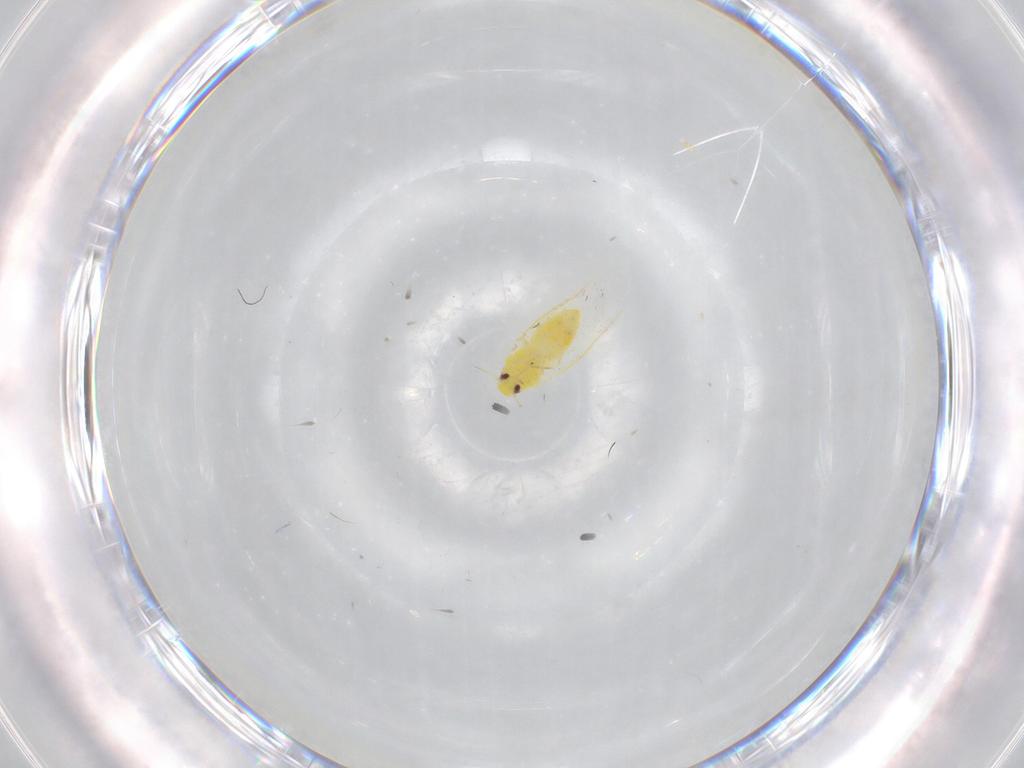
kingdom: Animalia
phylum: Arthropoda
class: Insecta
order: Hemiptera
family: Aleyrodidae
